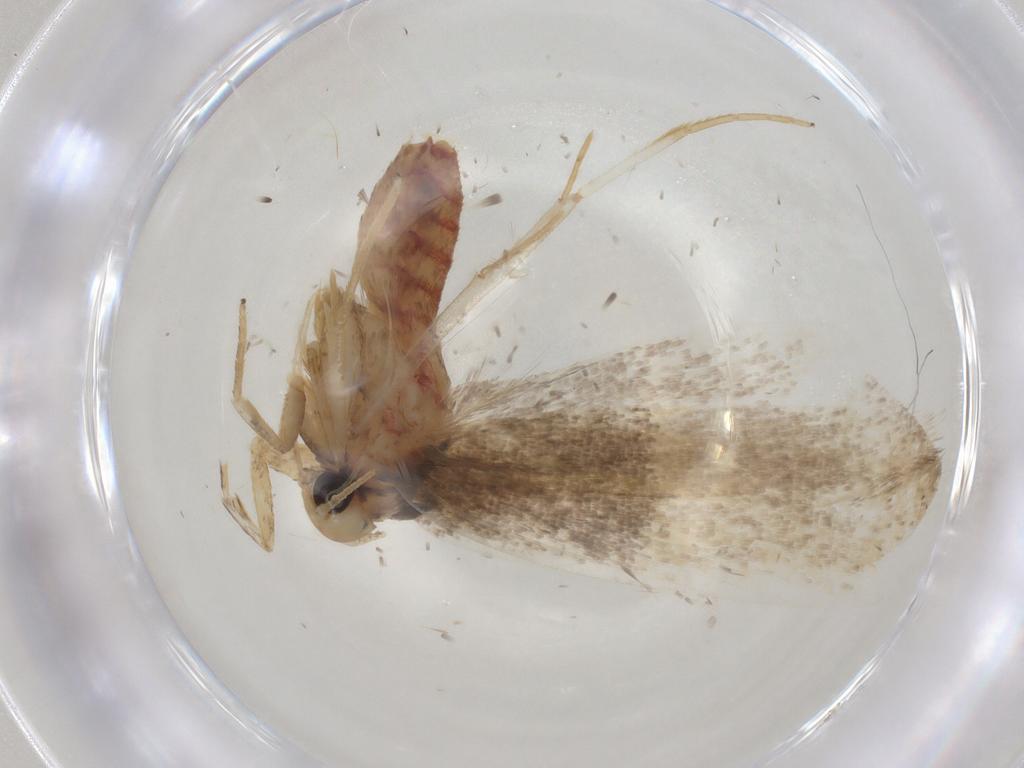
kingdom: Animalia
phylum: Arthropoda
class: Insecta
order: Lepidoptera
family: Lecithoceridae
